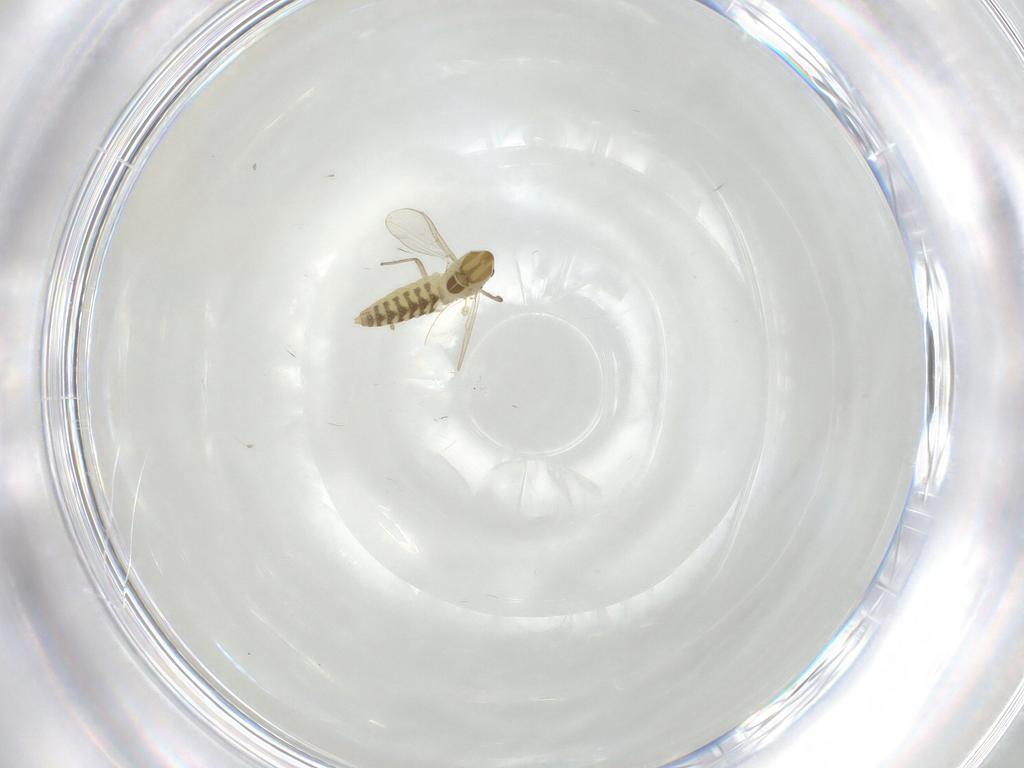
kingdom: Animalia
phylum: Arthropoda
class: Insecta
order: Diptera
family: Chironomidae
